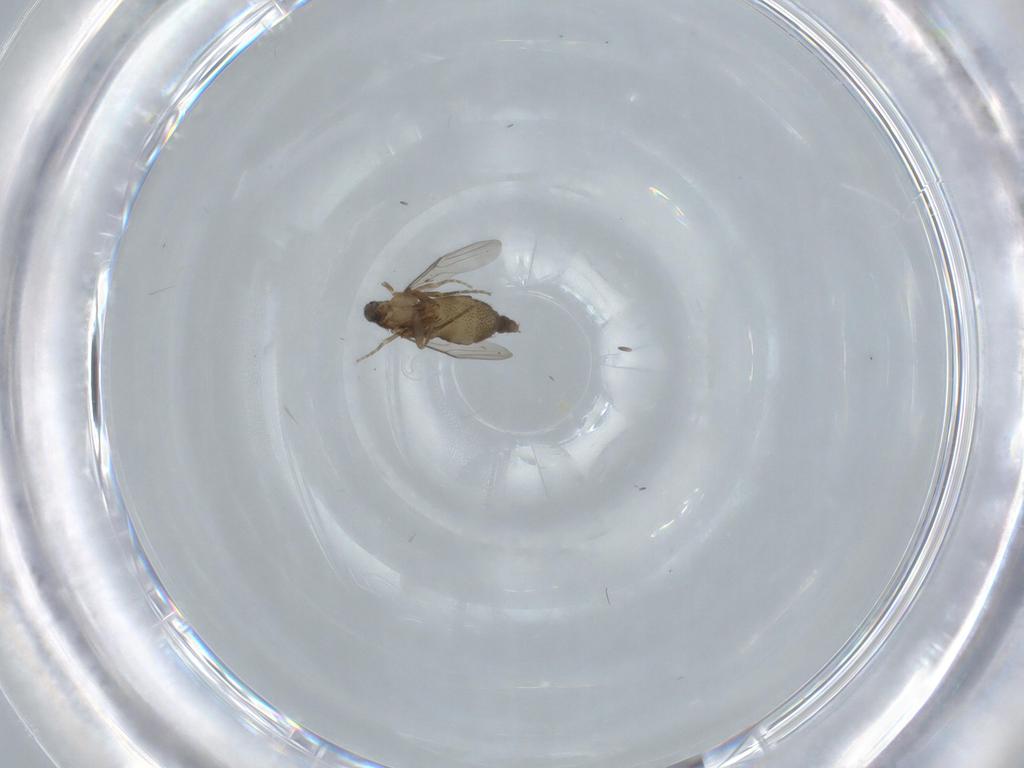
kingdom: Animalia
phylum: Arthropoda
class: Insecta
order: Diptera
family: Phoridae
